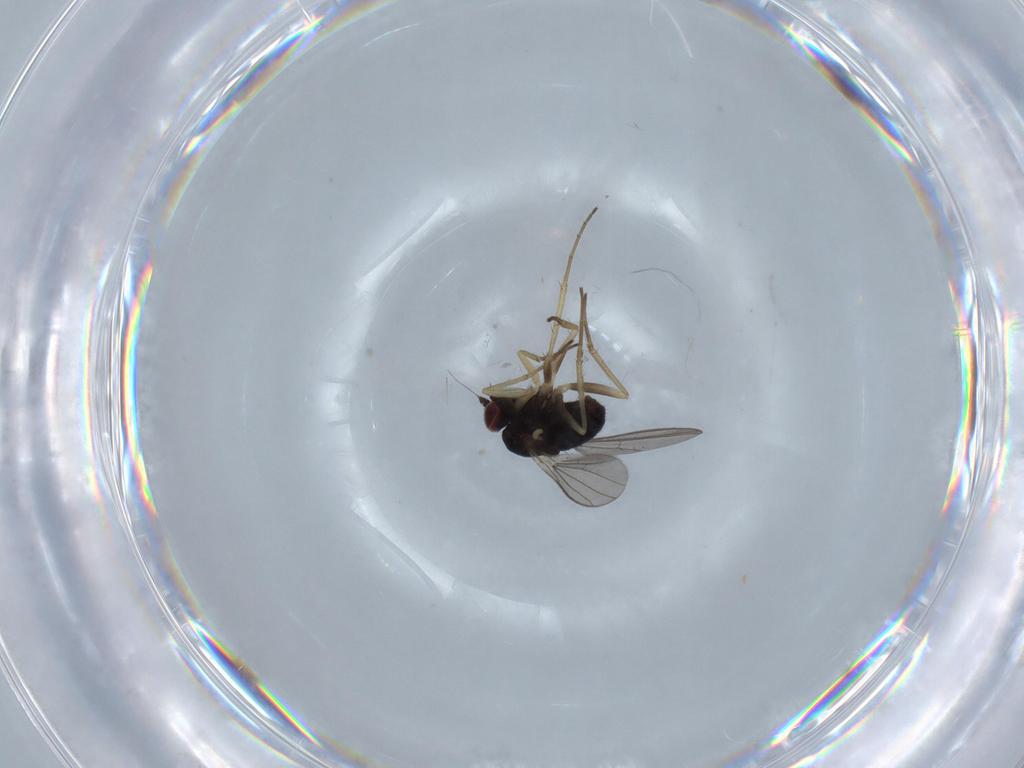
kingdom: Animalia
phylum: Arthropoda
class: Insecta
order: Diptera
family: Dolichopodidae
